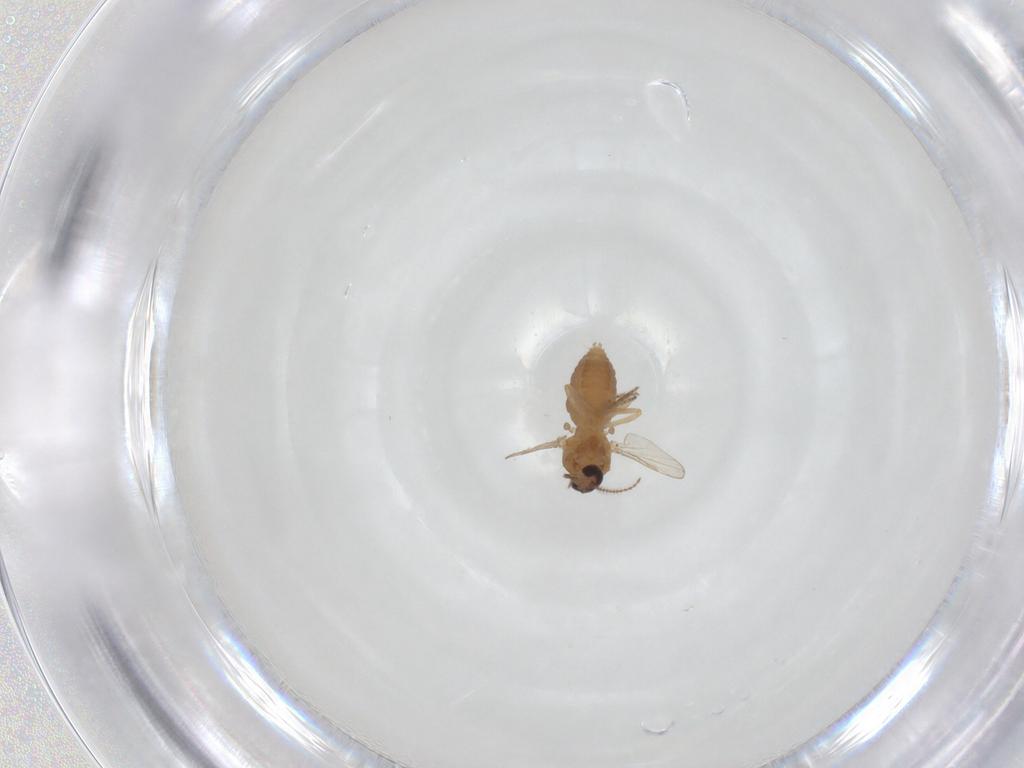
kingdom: Animalia
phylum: Arthropoda
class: Insecta
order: Diptera
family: Ceratopogonidae
